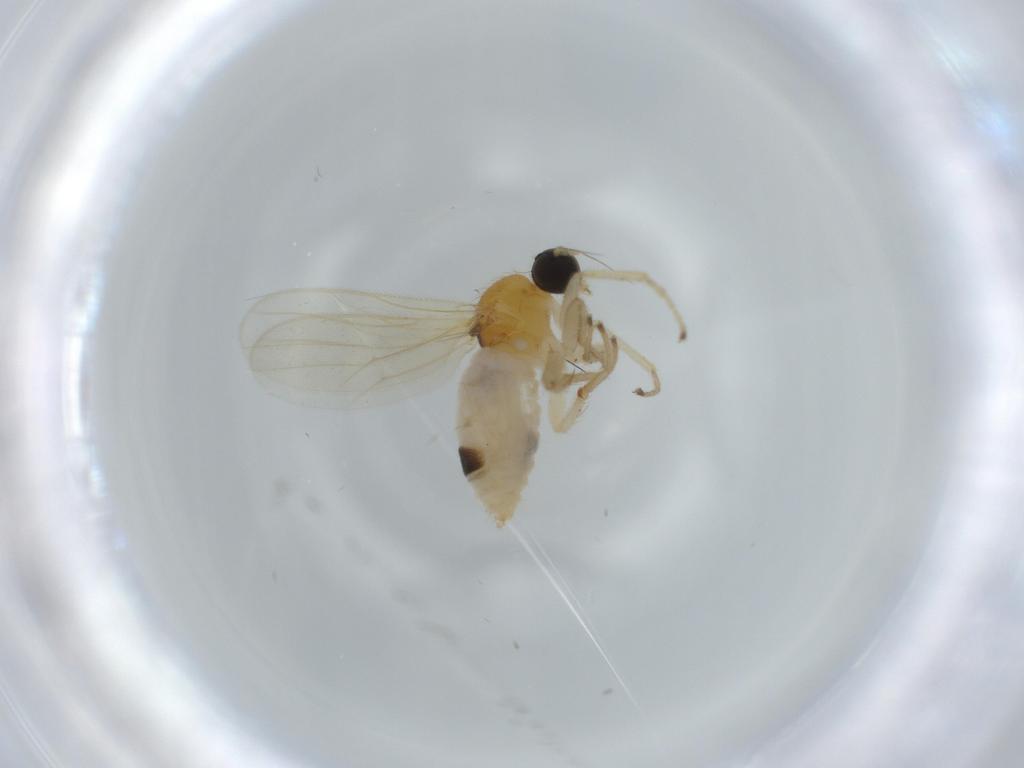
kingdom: Animalia
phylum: Arthropoda
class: Insecta
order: Diptera
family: Hybotidae
